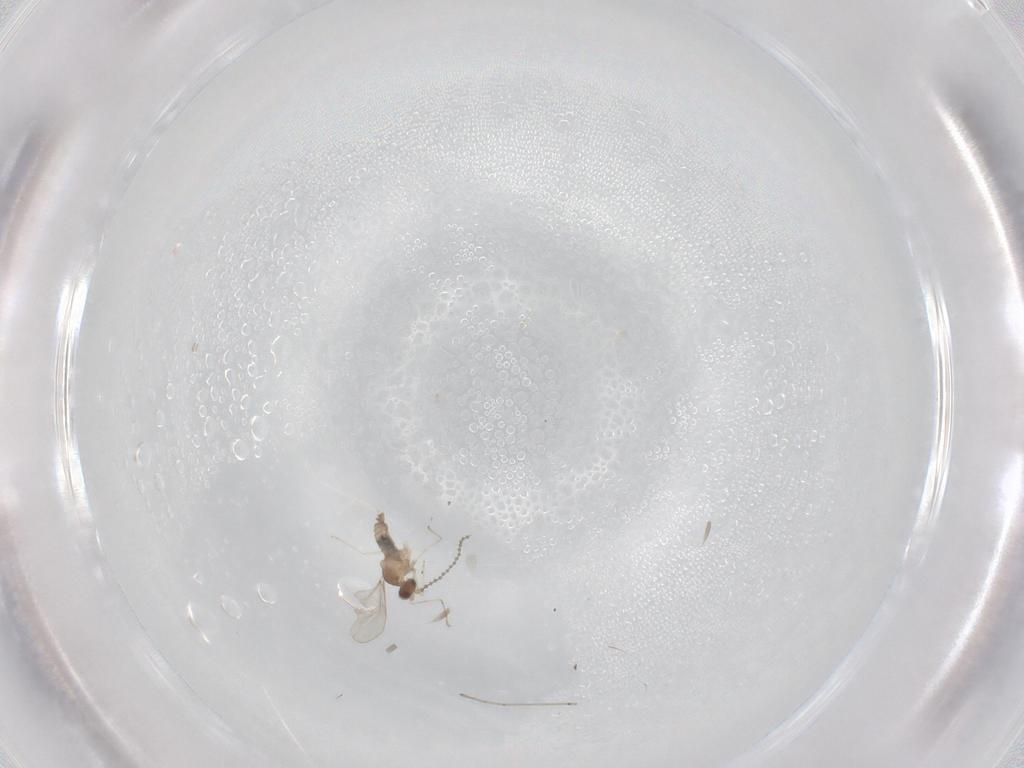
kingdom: Animalia
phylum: Arthropoda
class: Insecta
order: Diptera
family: Cecidomyiidae
